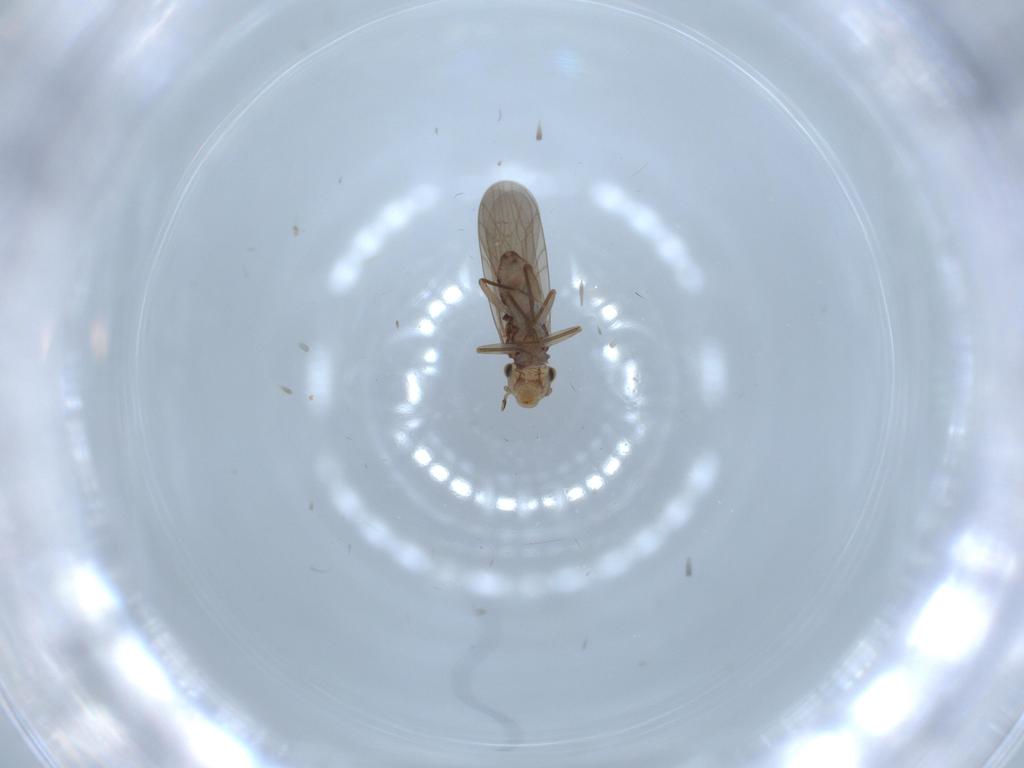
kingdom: Animalia
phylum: Arthropoda
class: Insecta
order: Psocodea
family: Lepidopsocidae
